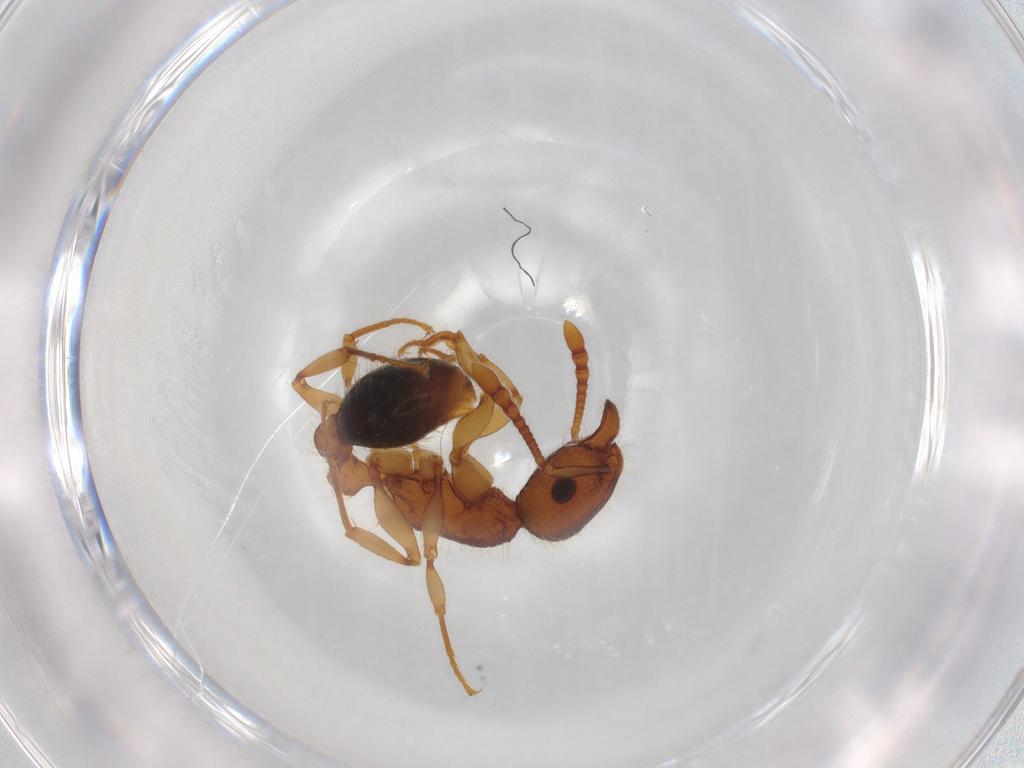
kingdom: Animalia
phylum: Arthropoda
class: Insecta
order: Hymenoptera
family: Formicidae
